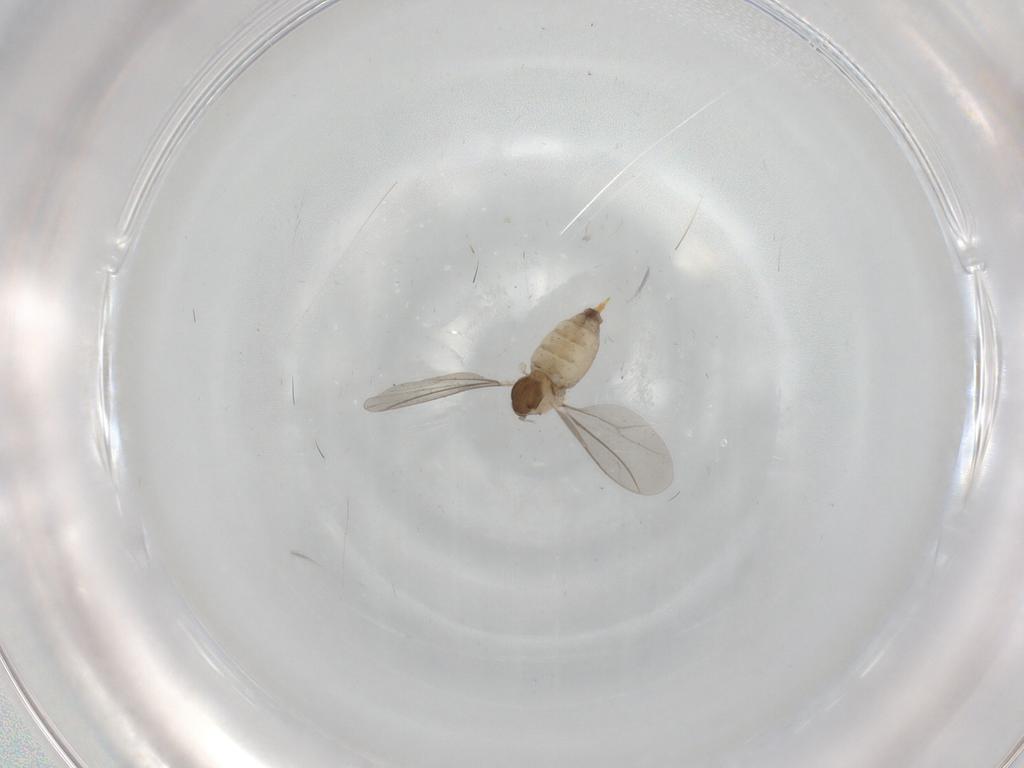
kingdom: Animalia
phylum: Arthropoda
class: Insecta
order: Diptera
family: Cecidomyiidae
